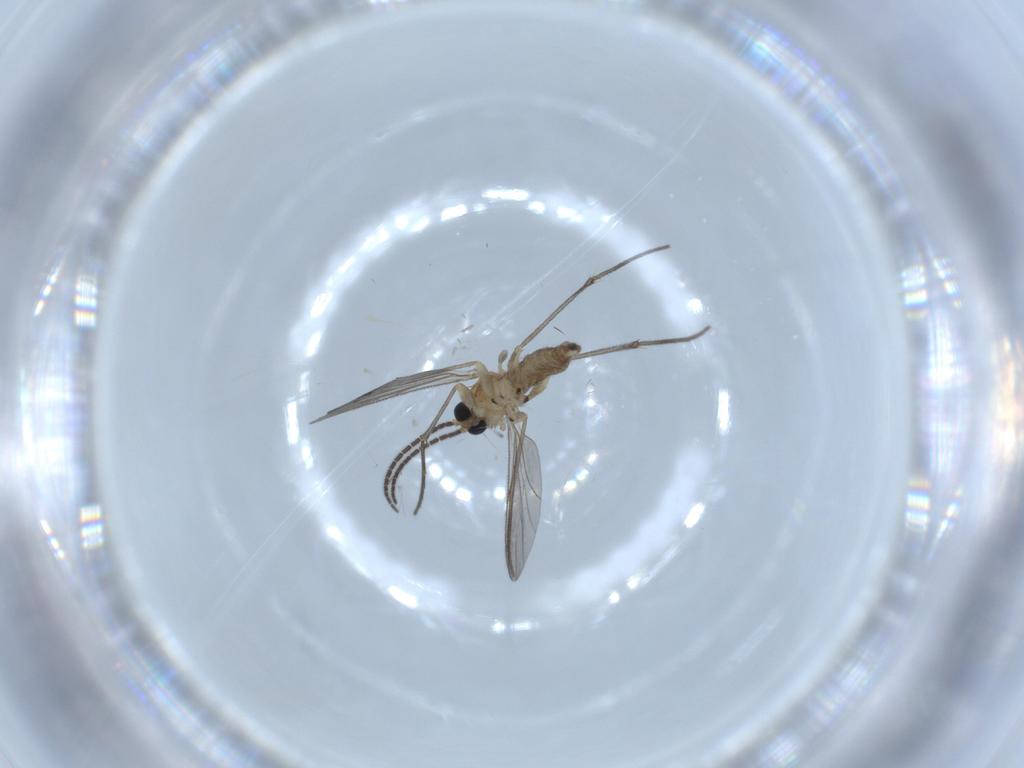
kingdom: Animalia
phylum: Arthropoda
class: Insecta
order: Diptera
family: Sciaridae
